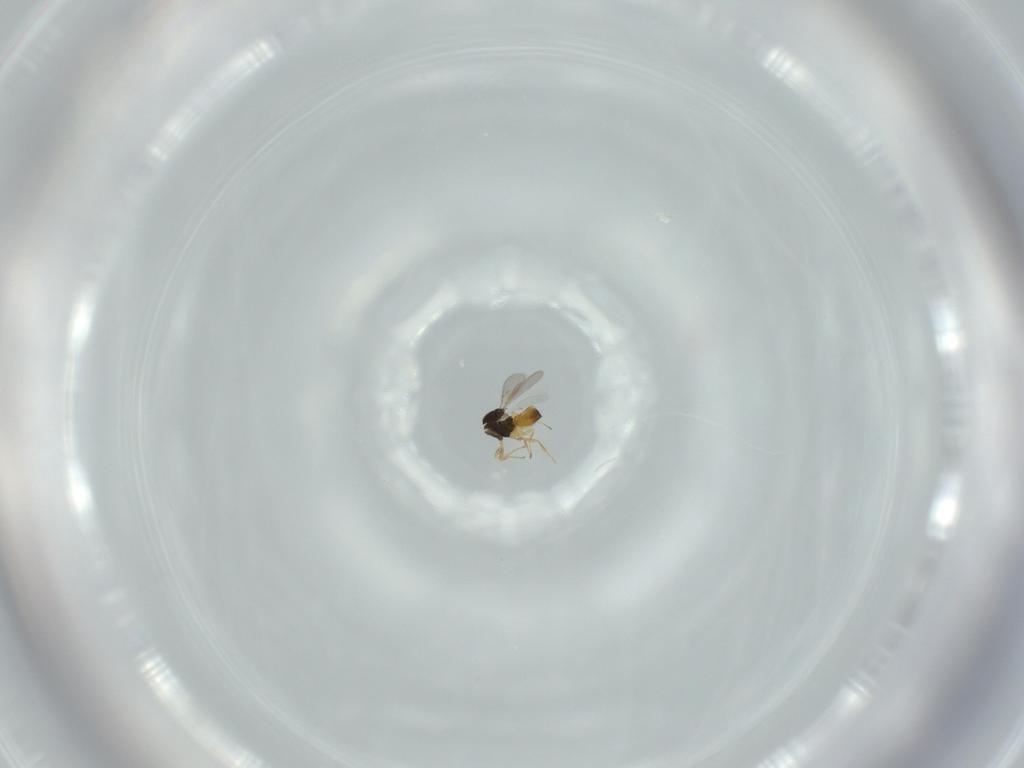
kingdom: Animalia
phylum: Arthropoda
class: Insecta
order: Hymenoptera
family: Scelionidae
